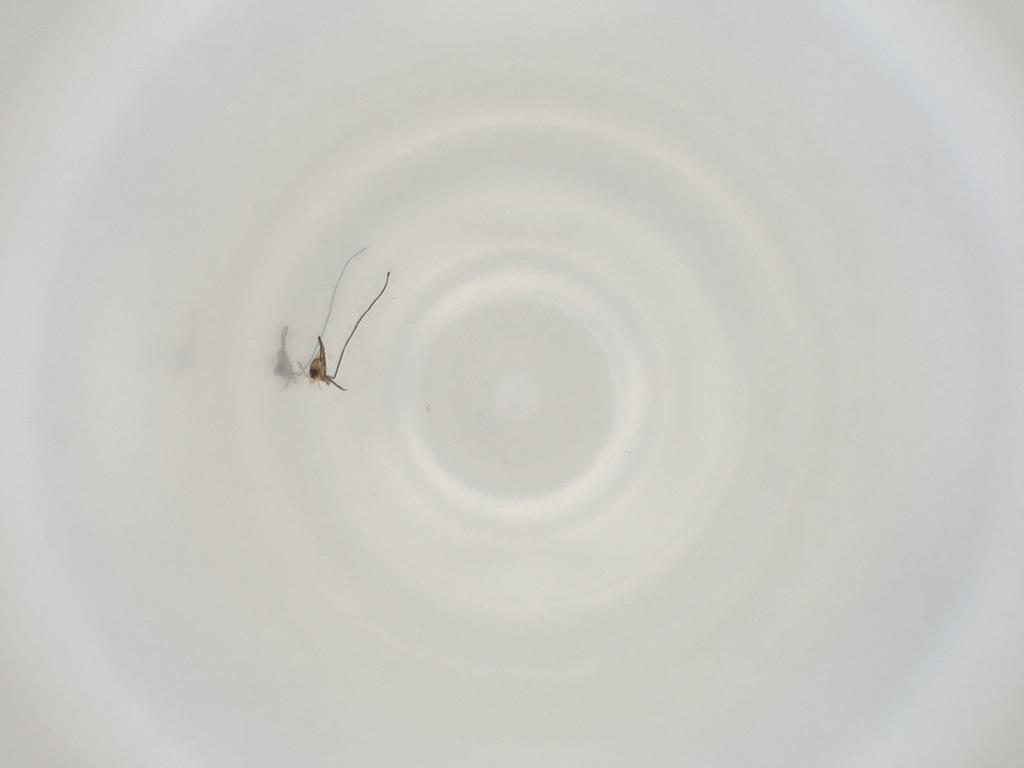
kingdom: Animalia
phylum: Arthropoda
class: Insecta
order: Diptera
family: Cecidomyiidae
